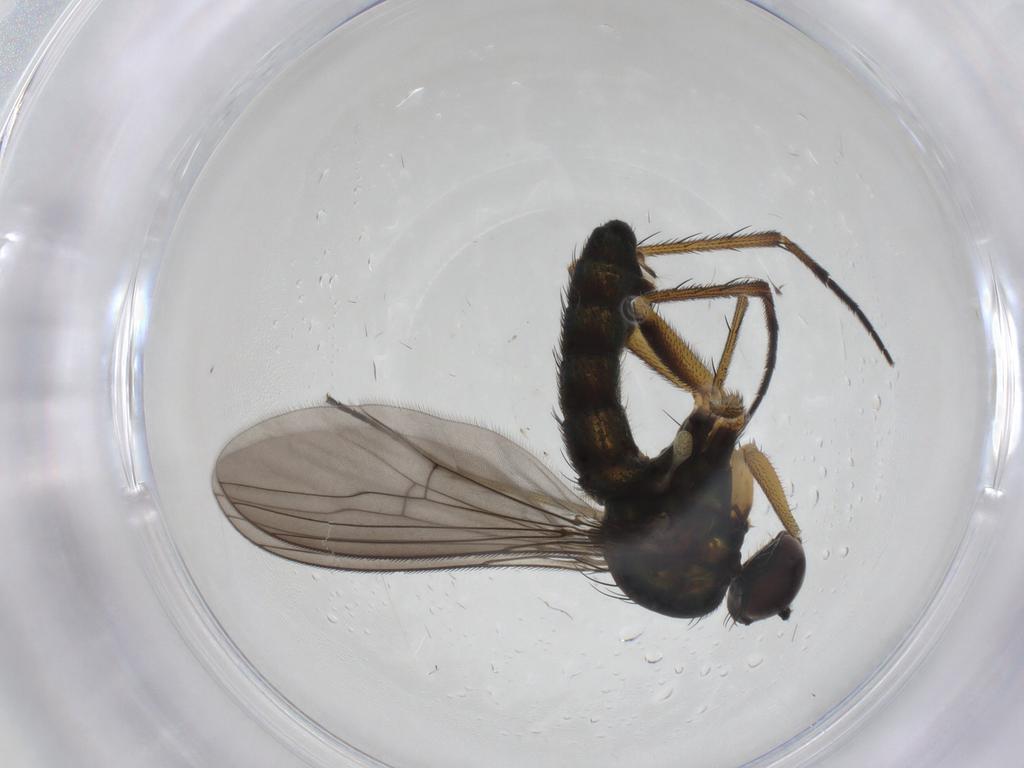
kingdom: Animalia
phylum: Arthropoda
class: Insecta
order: Diptera
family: Dolichopodidae
